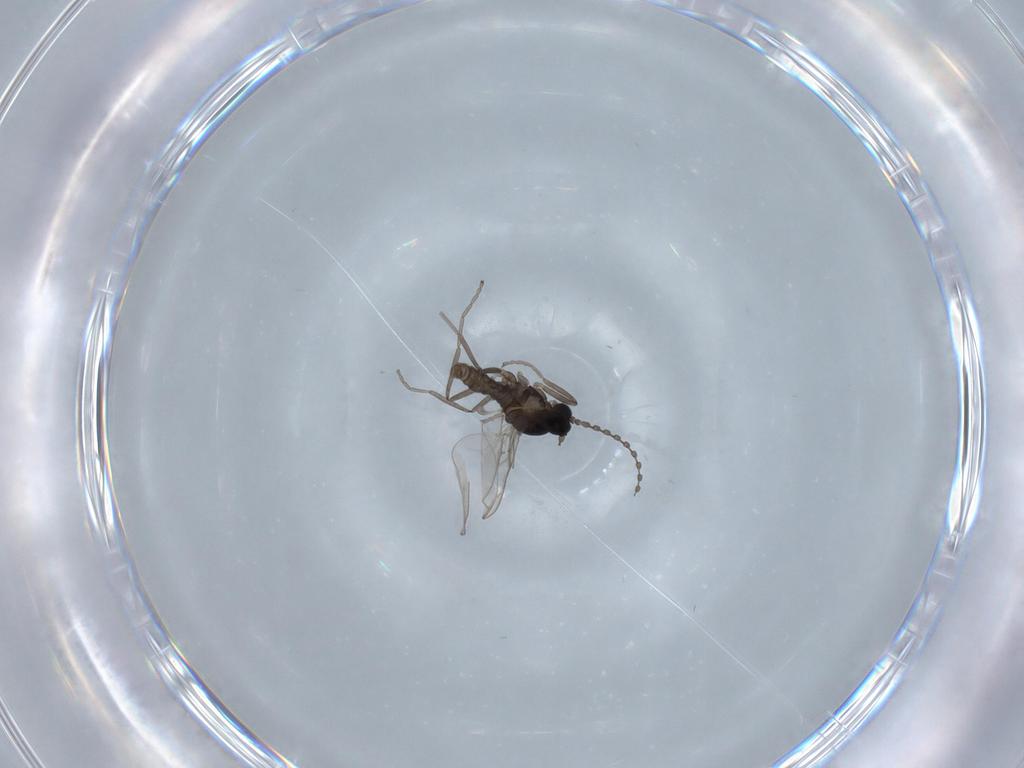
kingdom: Animalia
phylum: Arthropoda
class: Insecta
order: Diptera
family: Cecidomyiidae
